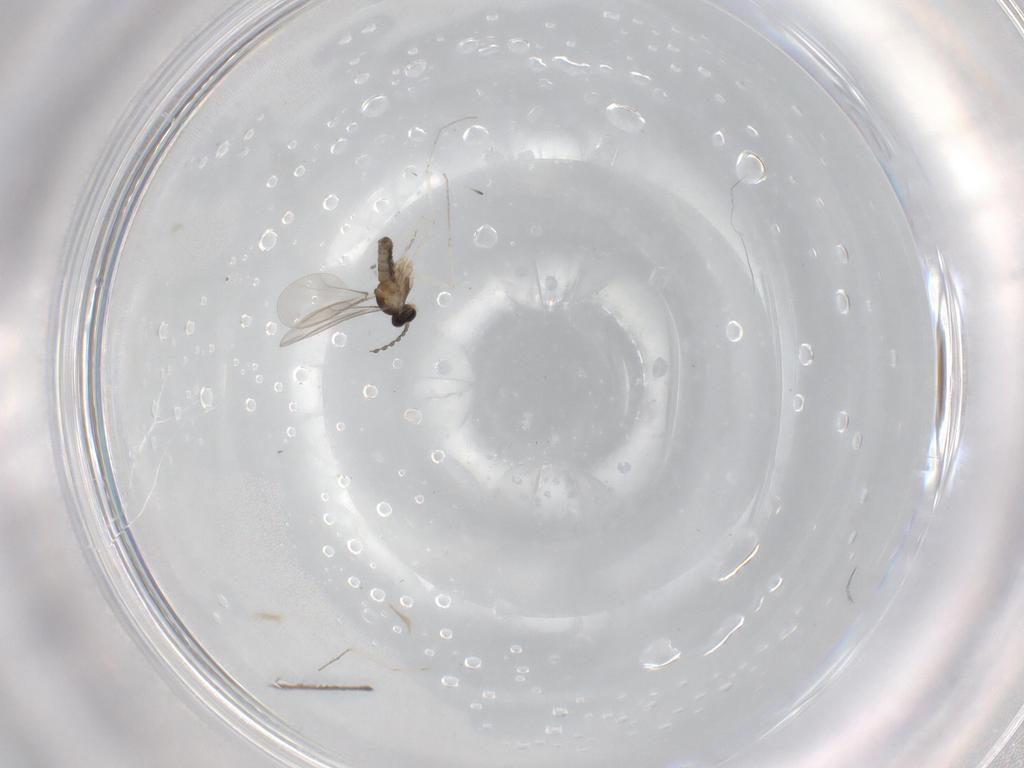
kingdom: Animalia
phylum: Arthropoda
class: Insecta
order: Diptera
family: Cecidomyiidae
